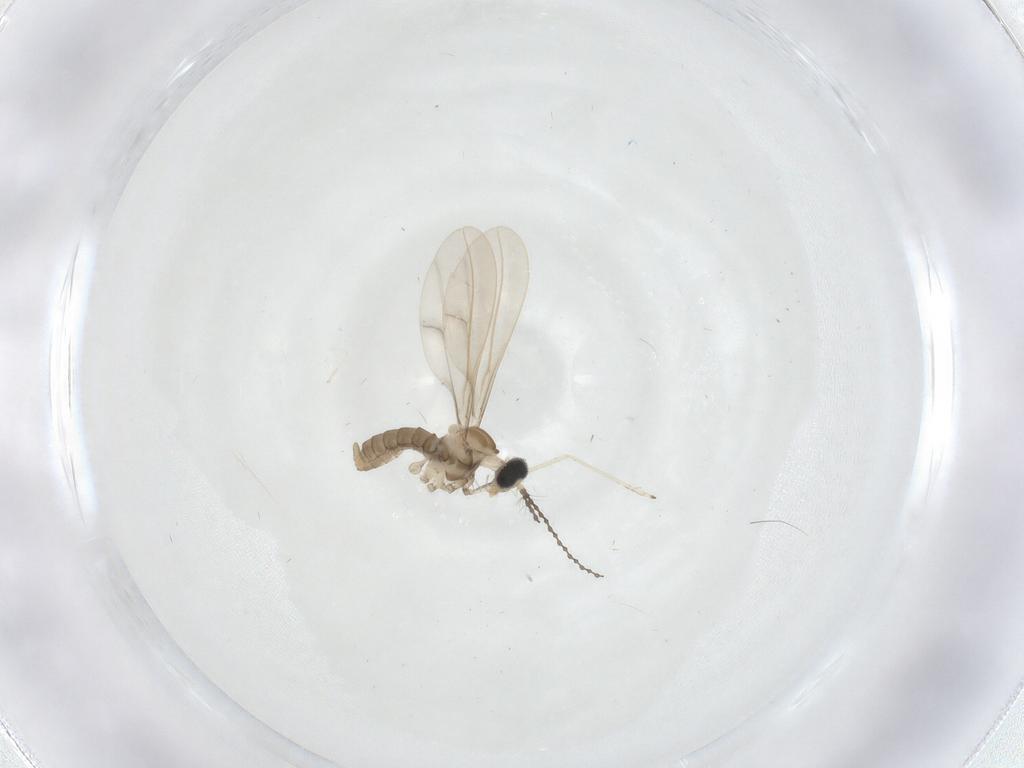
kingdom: Animalia
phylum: Arthropoda
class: Insecta
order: Diptera
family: Cecidomyiidae
